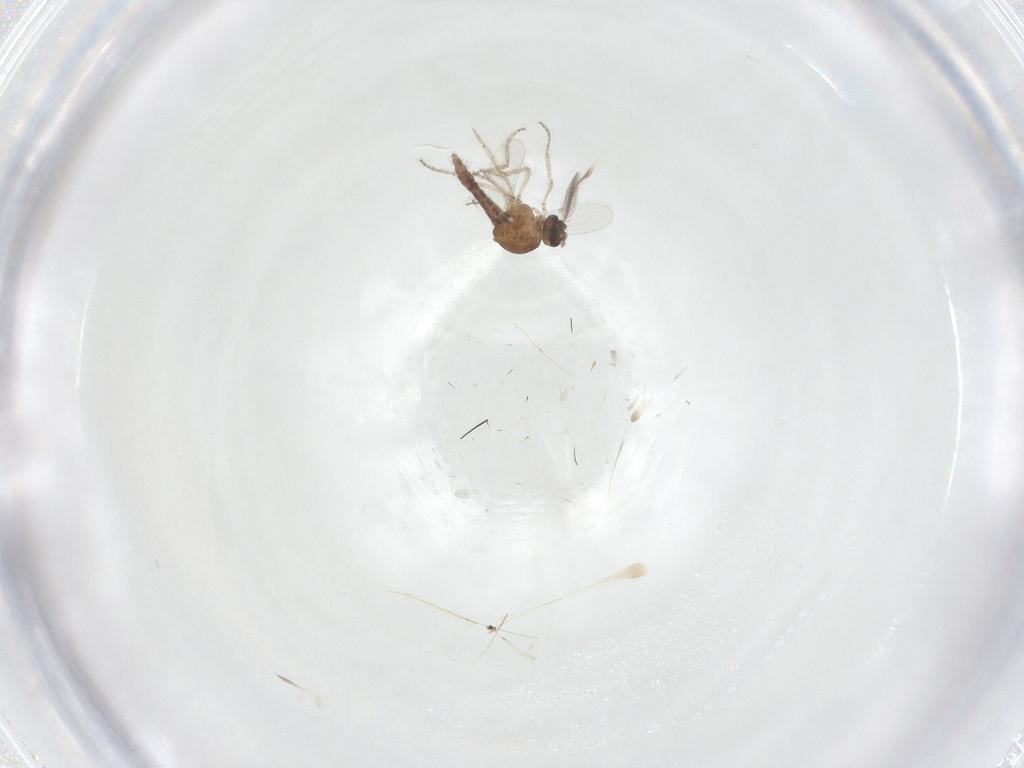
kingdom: Animalia
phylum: Arthropoda
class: Insecta
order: Diptera
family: Ceratopogonidae
